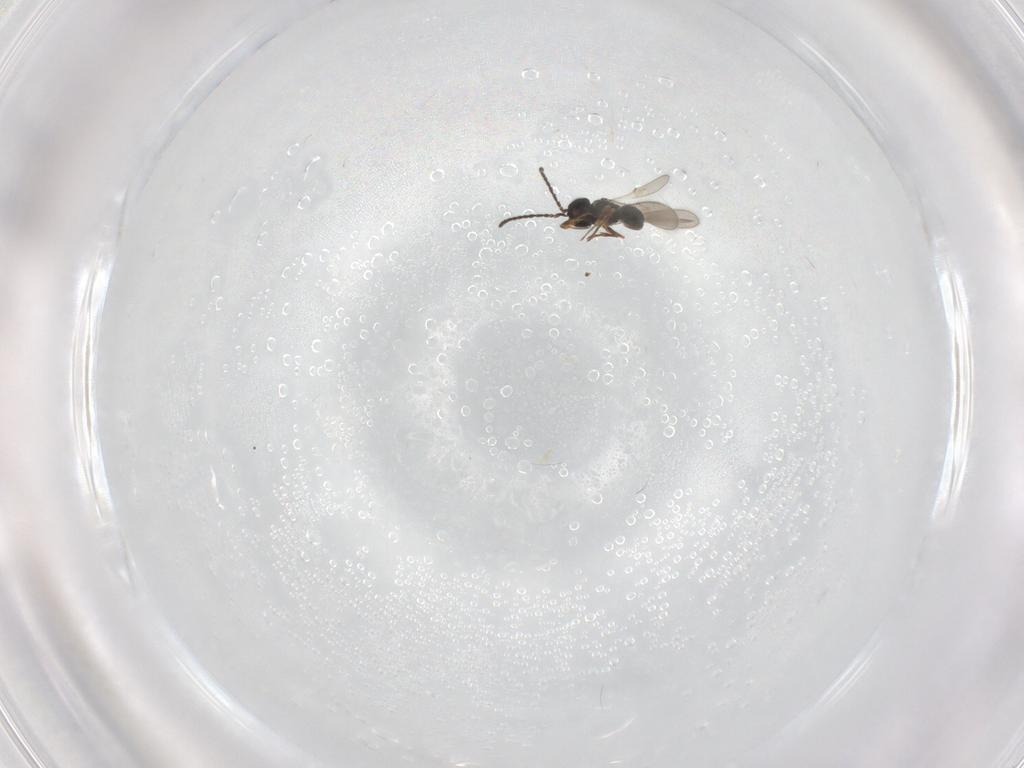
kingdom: Animalia
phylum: Arthropoda
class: Insecta
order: Hymenoptera
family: Scelionidae
